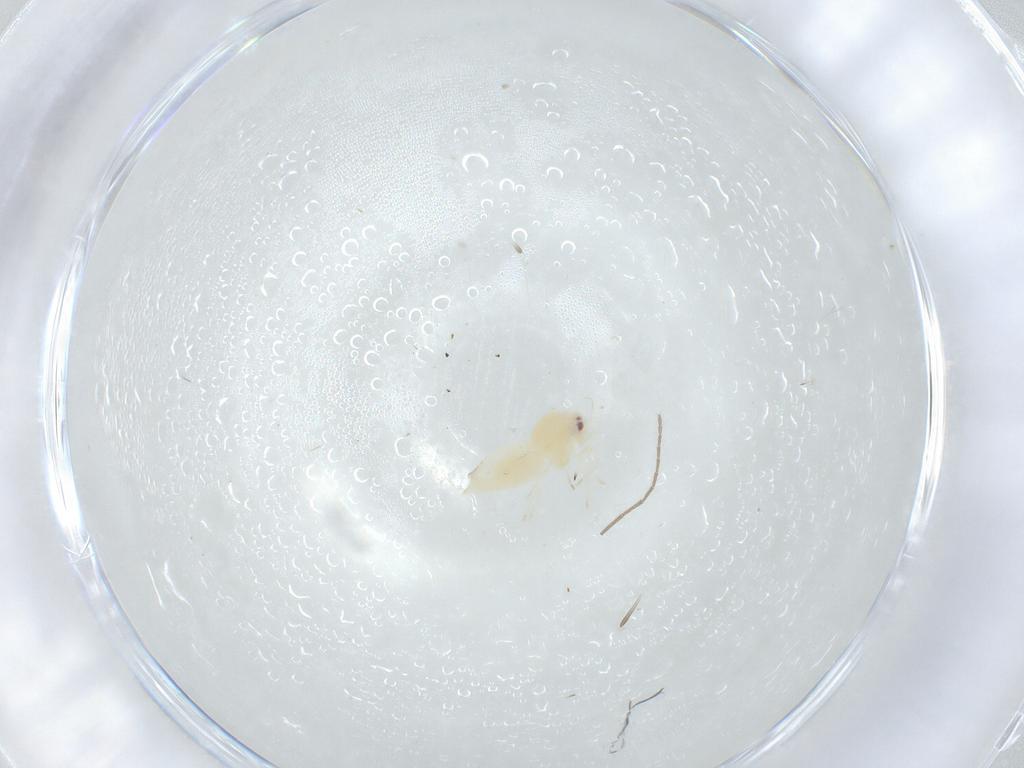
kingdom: Animalia
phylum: Arthropoda
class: Insecta
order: Hemiptera
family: Aleyrodidae
